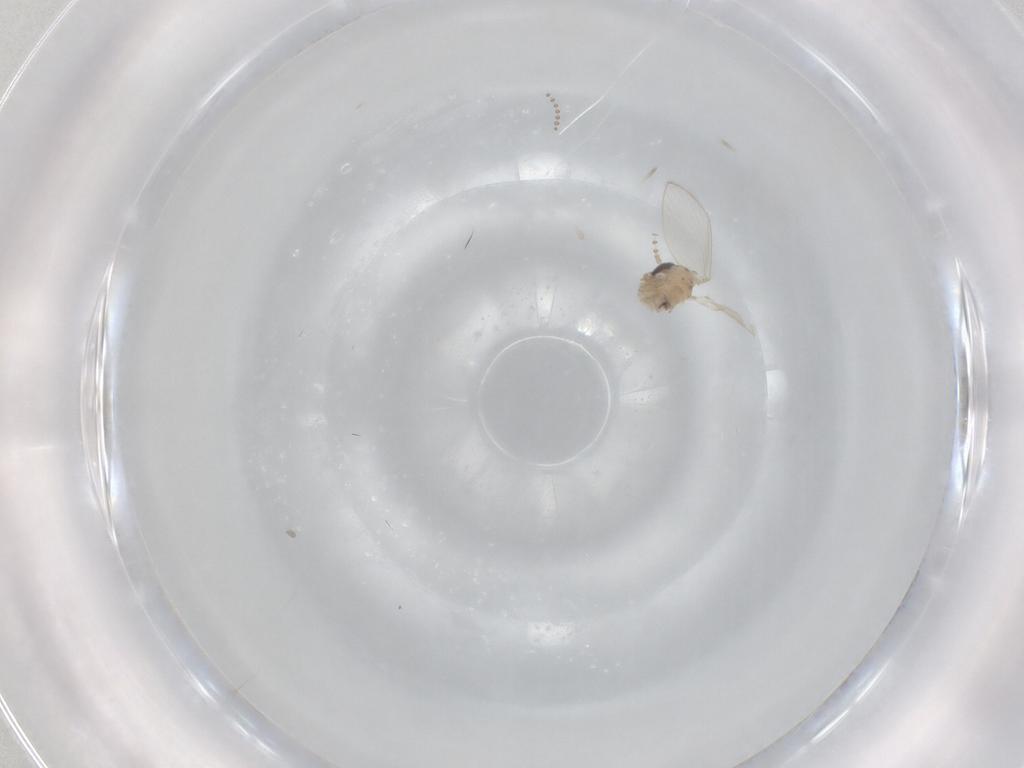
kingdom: Animalia
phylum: Arthropoda
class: Insecta
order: Diptera
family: Psychodidae
